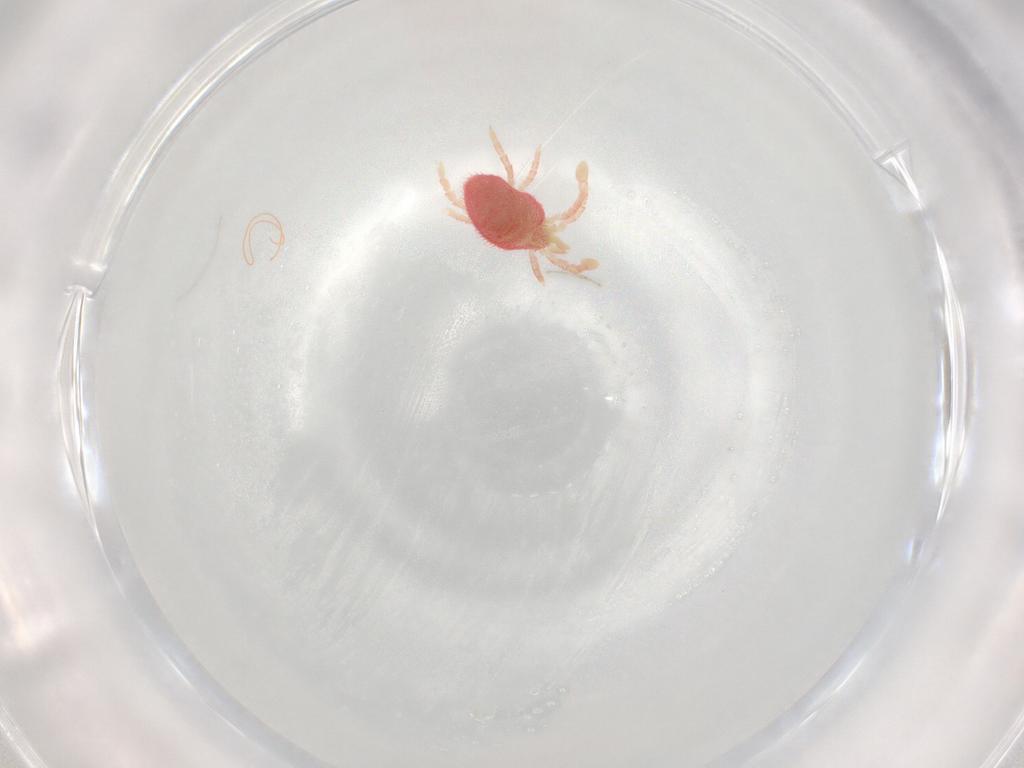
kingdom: Animalia
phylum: Arthropoda
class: Arachnida
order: Mesostigmata
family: Ascidae
